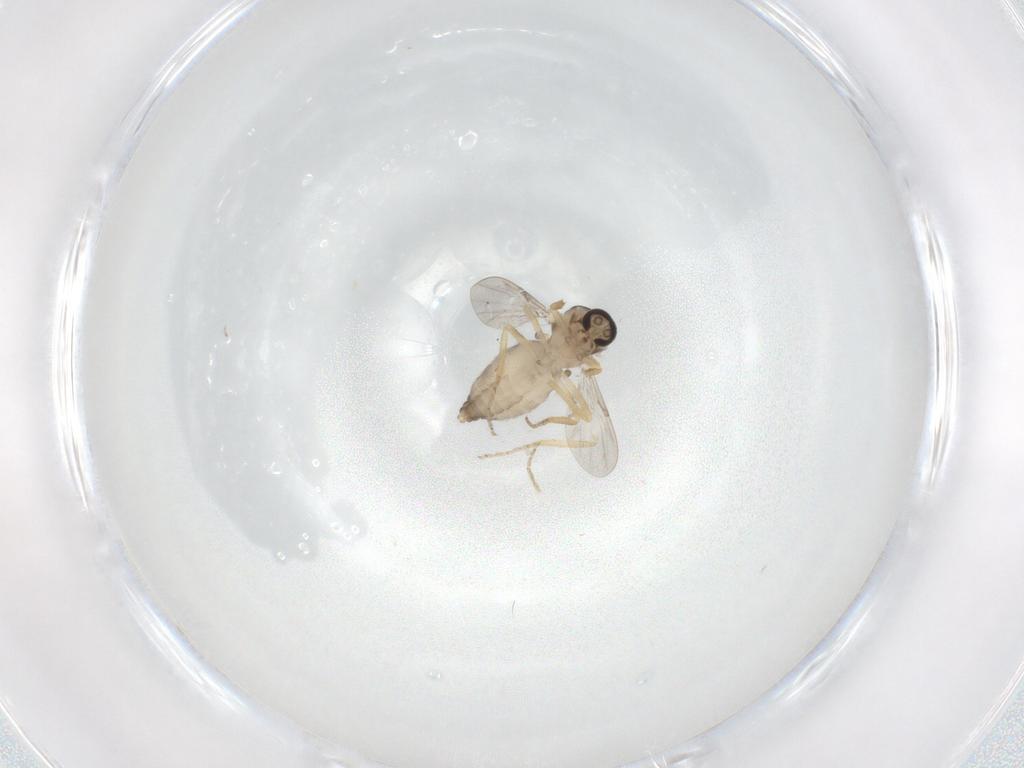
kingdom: Animalia
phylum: Arthropoda
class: Insecta
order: Diptera
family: Ceratopogonidae
